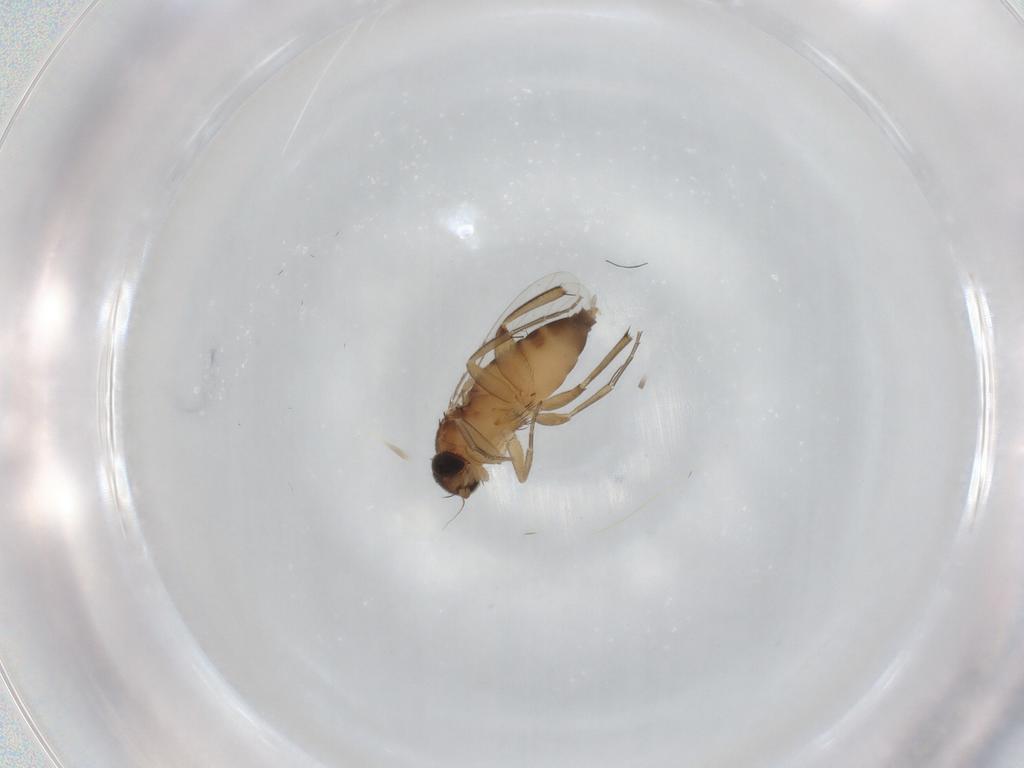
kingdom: Animalia
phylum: Arthropoda
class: Insecta
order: Diptera
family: Phoridae
